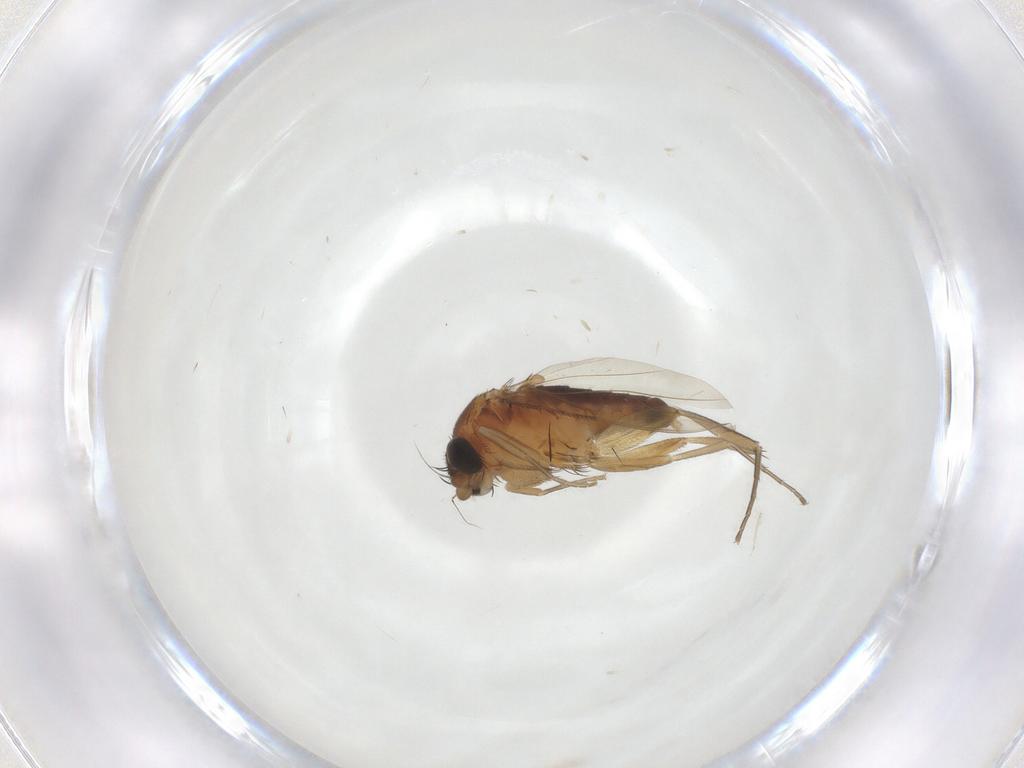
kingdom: Animalia
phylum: Arthropoda
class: Insecta
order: Diptera
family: Phoridae
